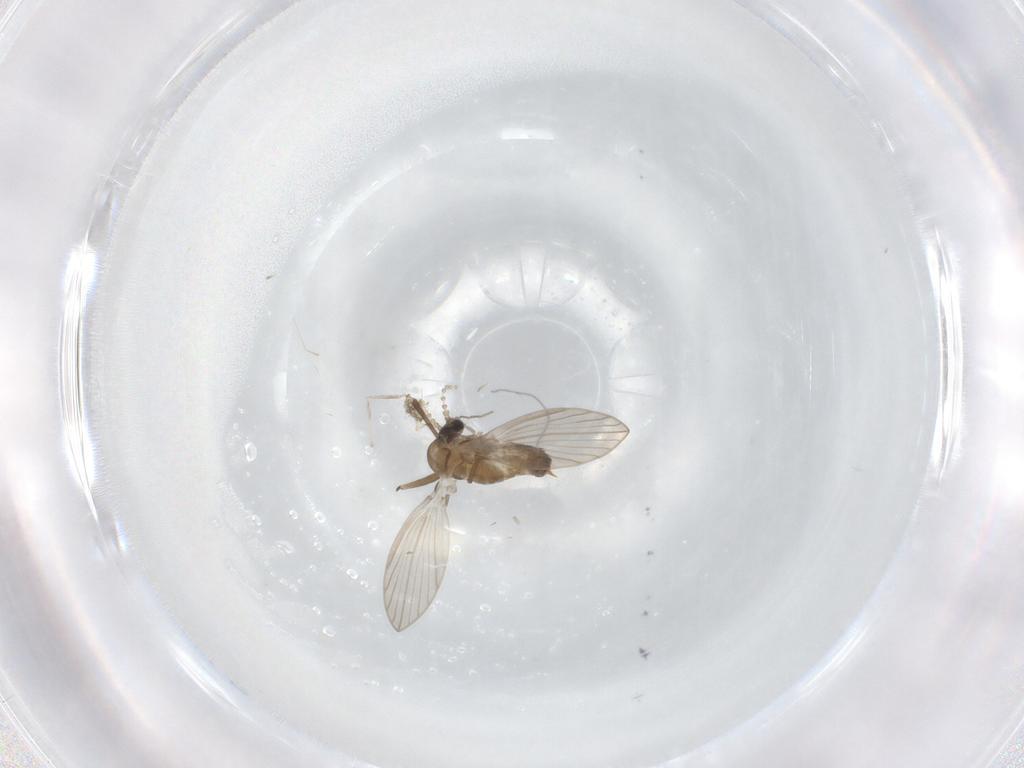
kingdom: Animalia
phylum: Arthropoda
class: Insecta
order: Diptera
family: Psychodidae
